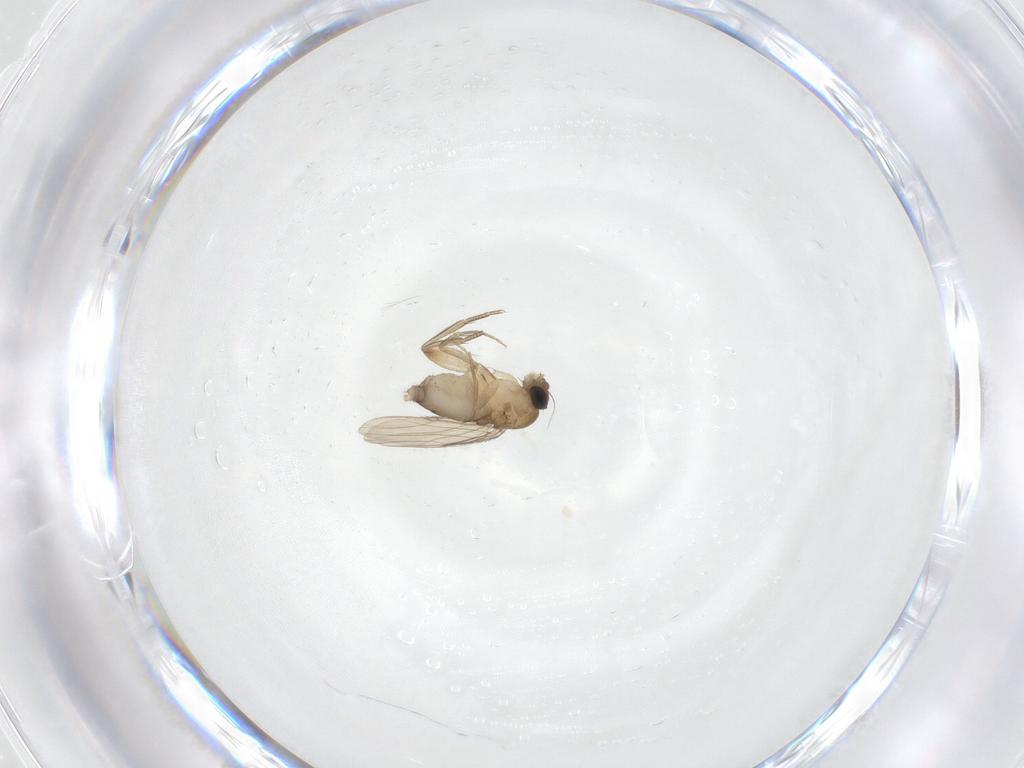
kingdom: Animalia
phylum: Arthropoda
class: Insecta
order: Diptera
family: Phoridae
